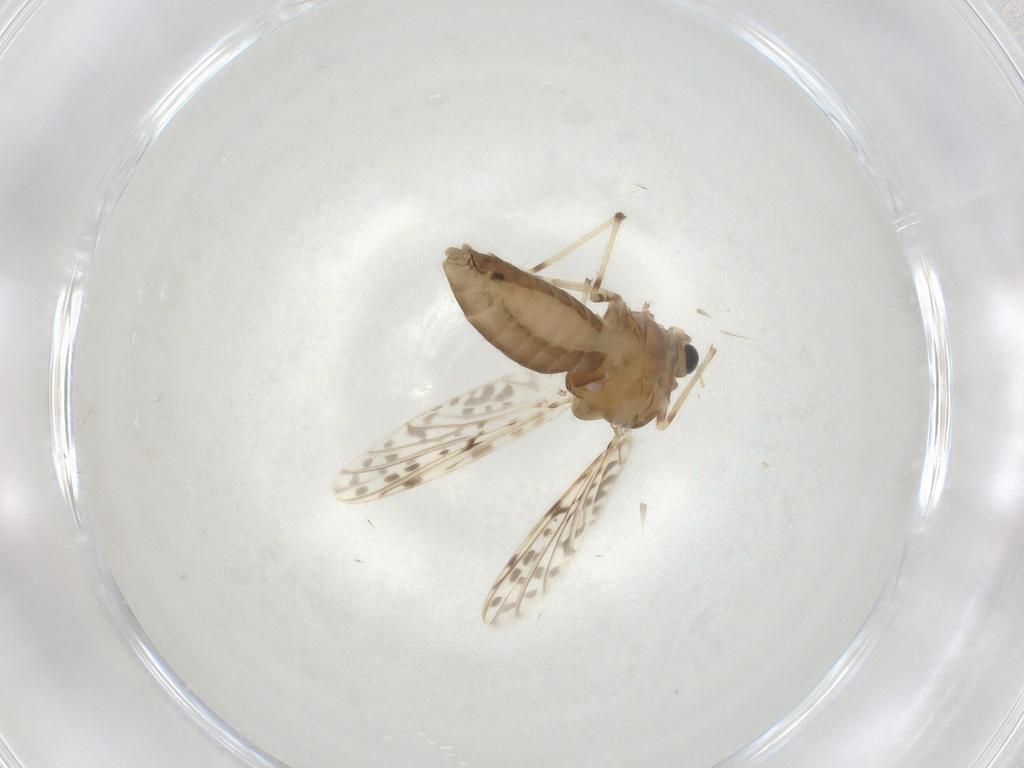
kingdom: Animalia
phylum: Arthropoda
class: Insecta
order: Diptera
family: Chironomidae
